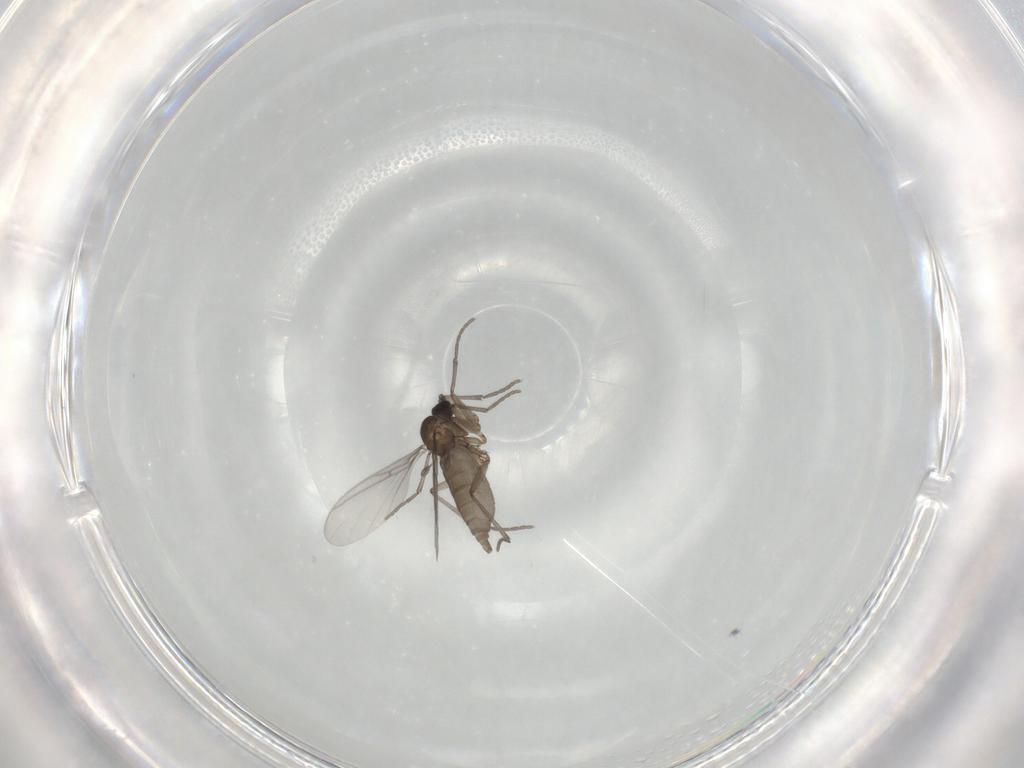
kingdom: Animalia
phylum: Arthropoda
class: Insecta
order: Diptera
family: Sciaridae
